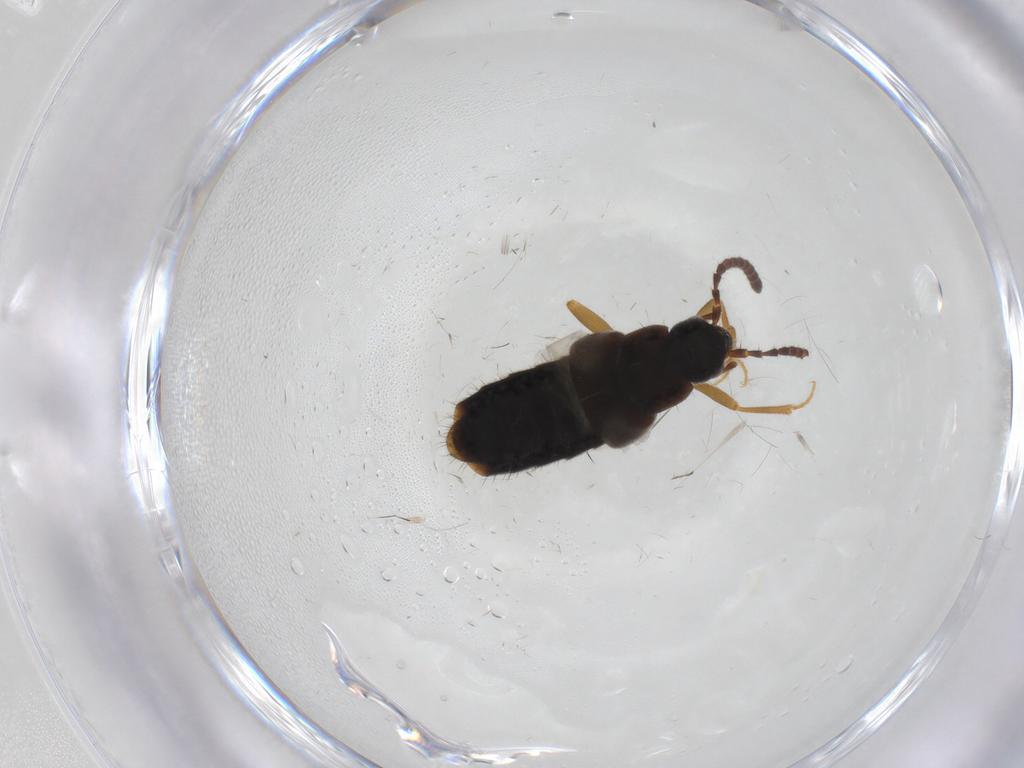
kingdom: Animalia
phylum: Arthropoda
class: Insecta
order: Coleoptera
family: Staphylinidae
